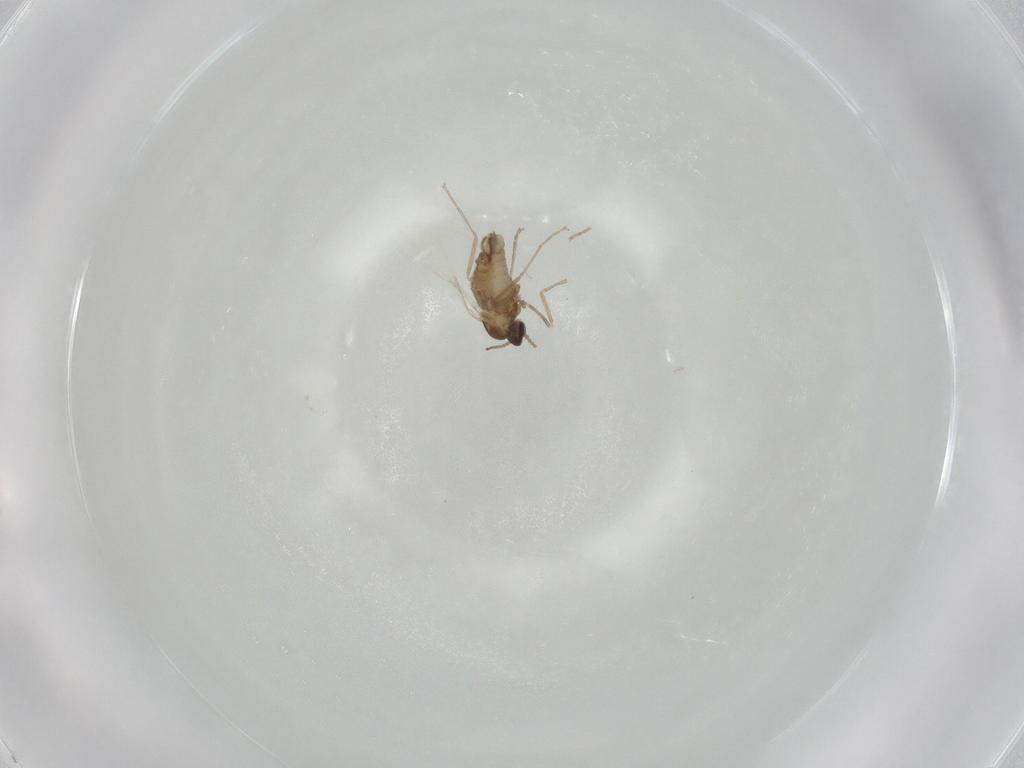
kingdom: Animalia
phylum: Arthropoda
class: Insecta
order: Diptera
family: Cecidomyiidae
